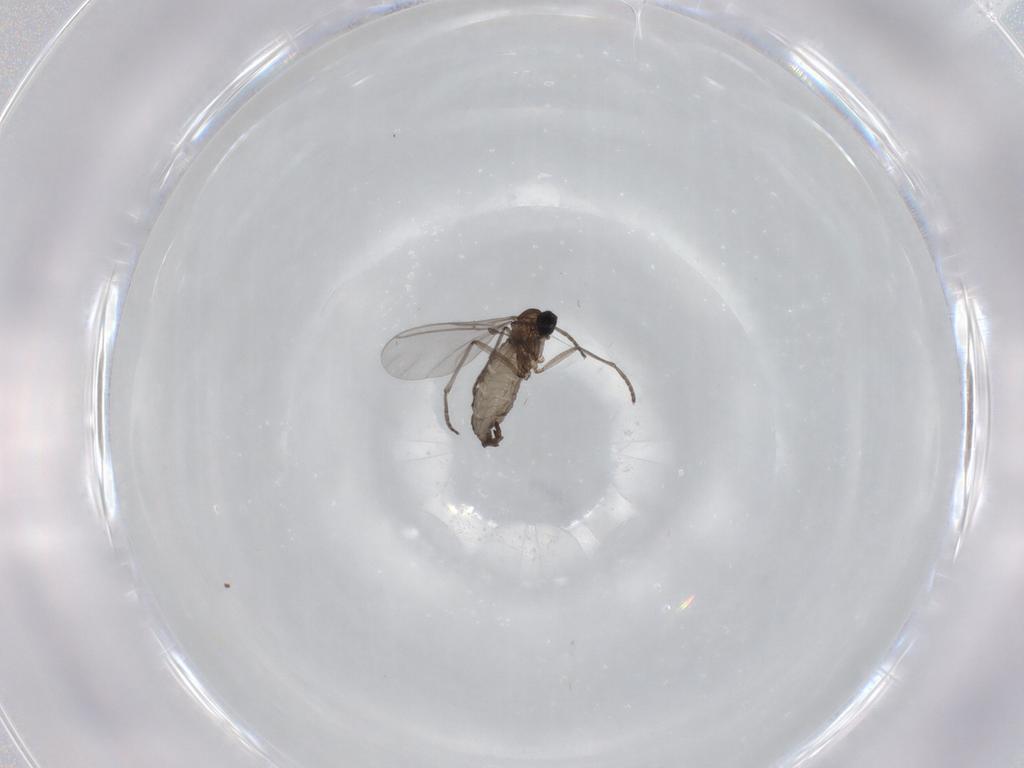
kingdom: Animalia
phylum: Arthropoda
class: Insecta
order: Diptera
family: Sciaridae
